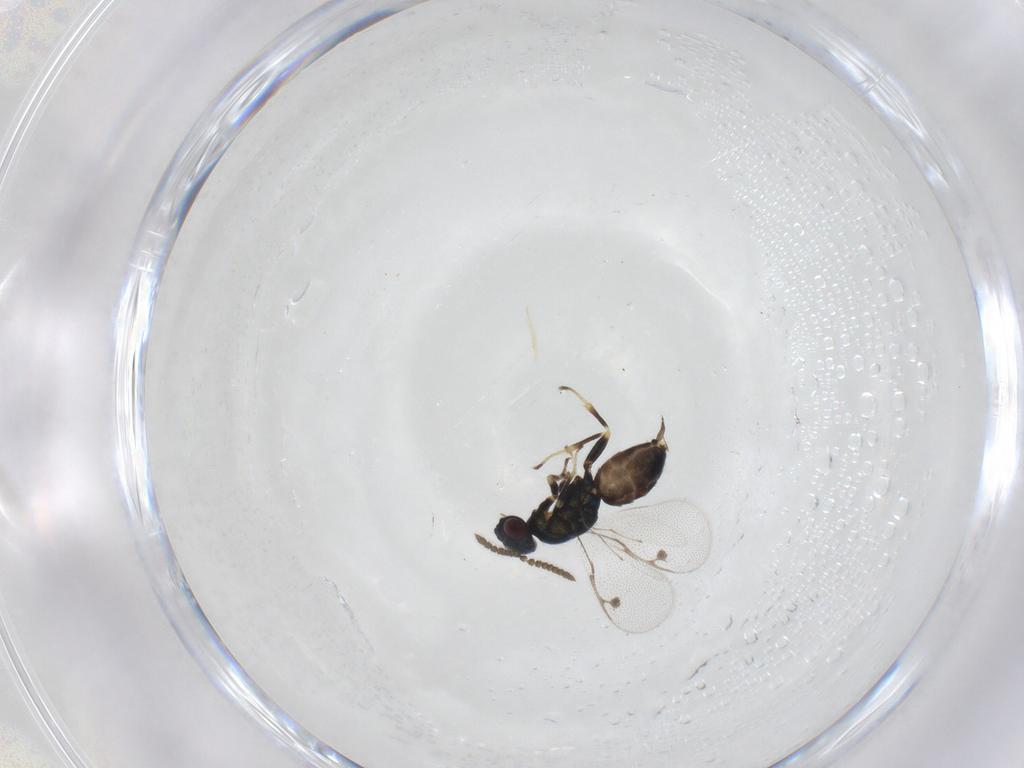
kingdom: Animalia
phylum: Arthropoda
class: Insecta
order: Hymenoptera
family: Pirenidae
